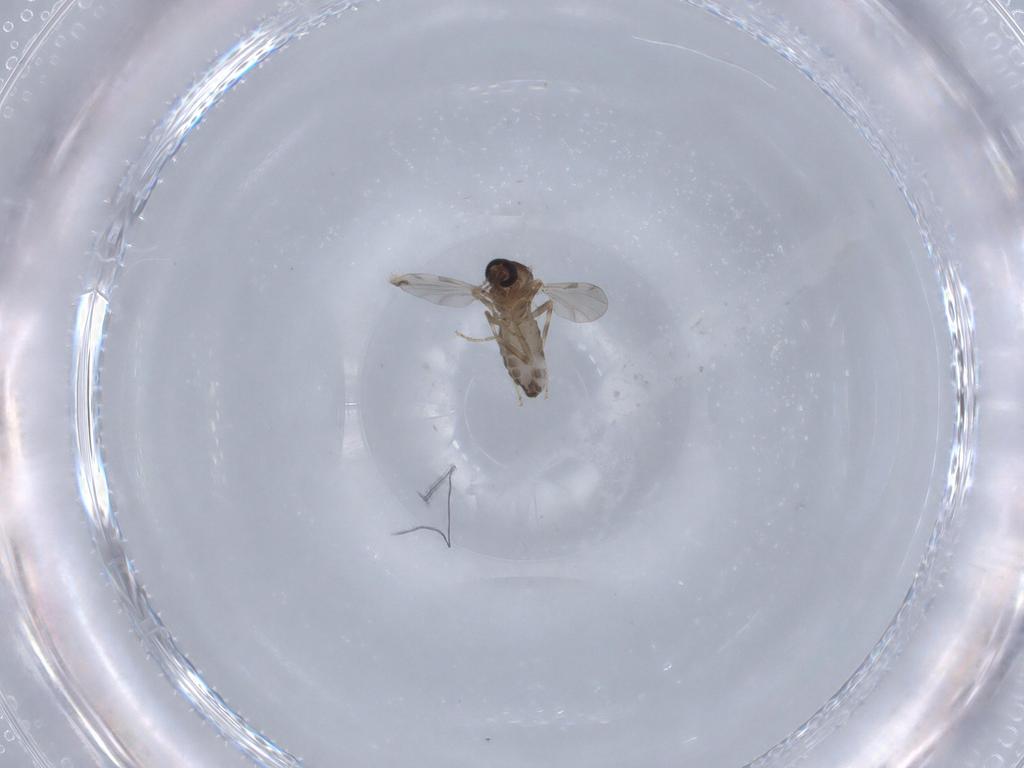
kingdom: Animalia
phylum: Arthropoda
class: Insecta
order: Diptera
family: Ceratopogonidae
